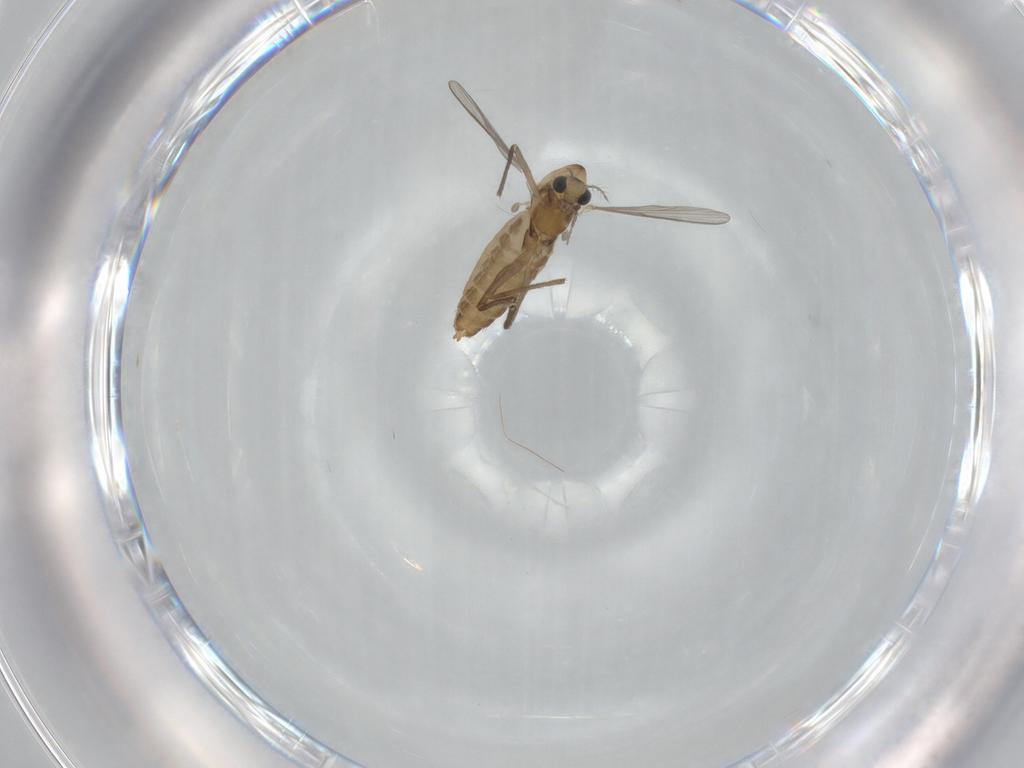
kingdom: Animalia
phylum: Arthropoda
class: Insecta
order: Diptera
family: Chironomidae
